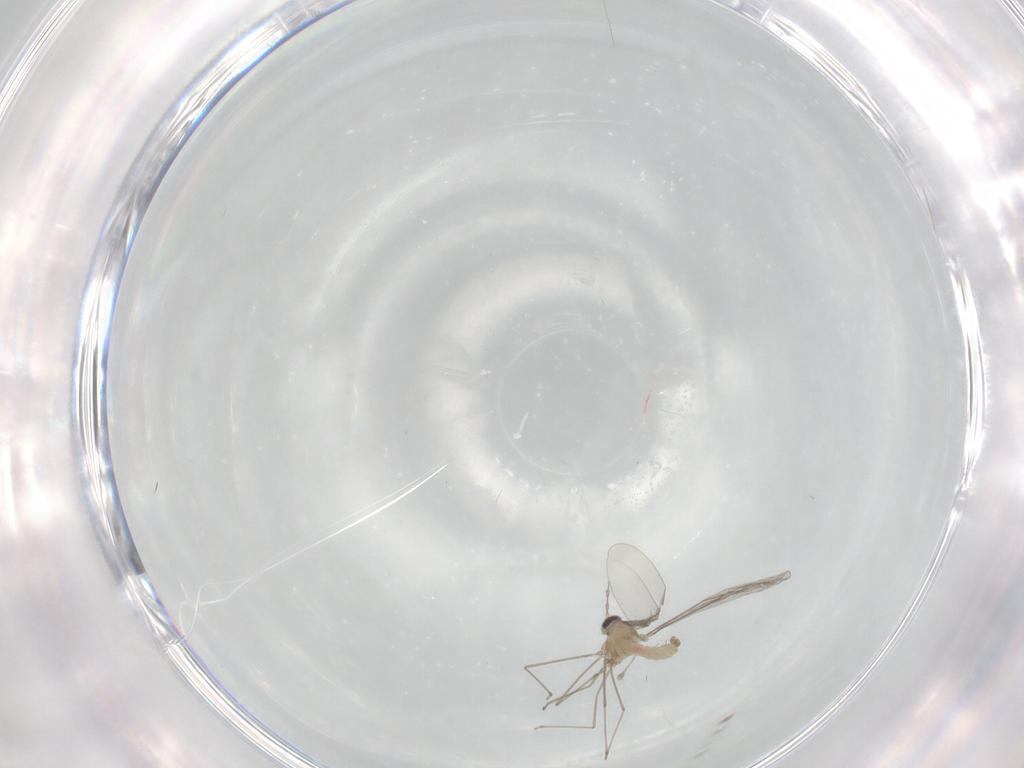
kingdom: Animalia
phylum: Arthropoda
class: Insecta
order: Diptera
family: Cecidomyiidae
